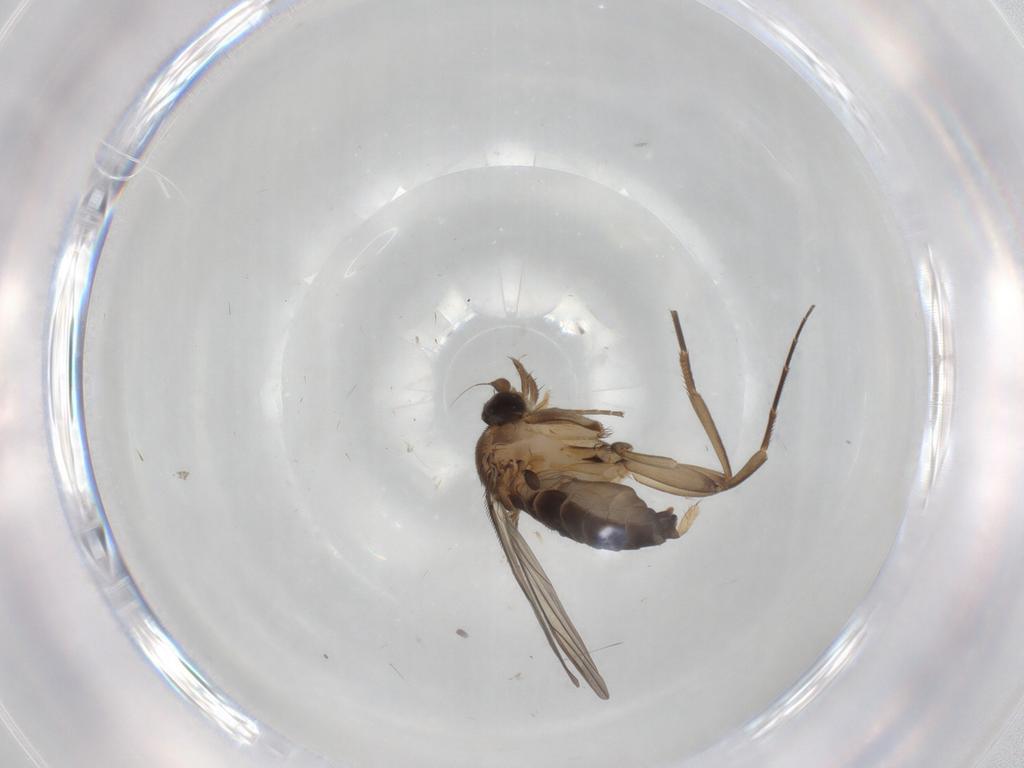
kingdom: Animalia
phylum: Arthropoda
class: Insecta
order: Diptera
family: Phoridae
